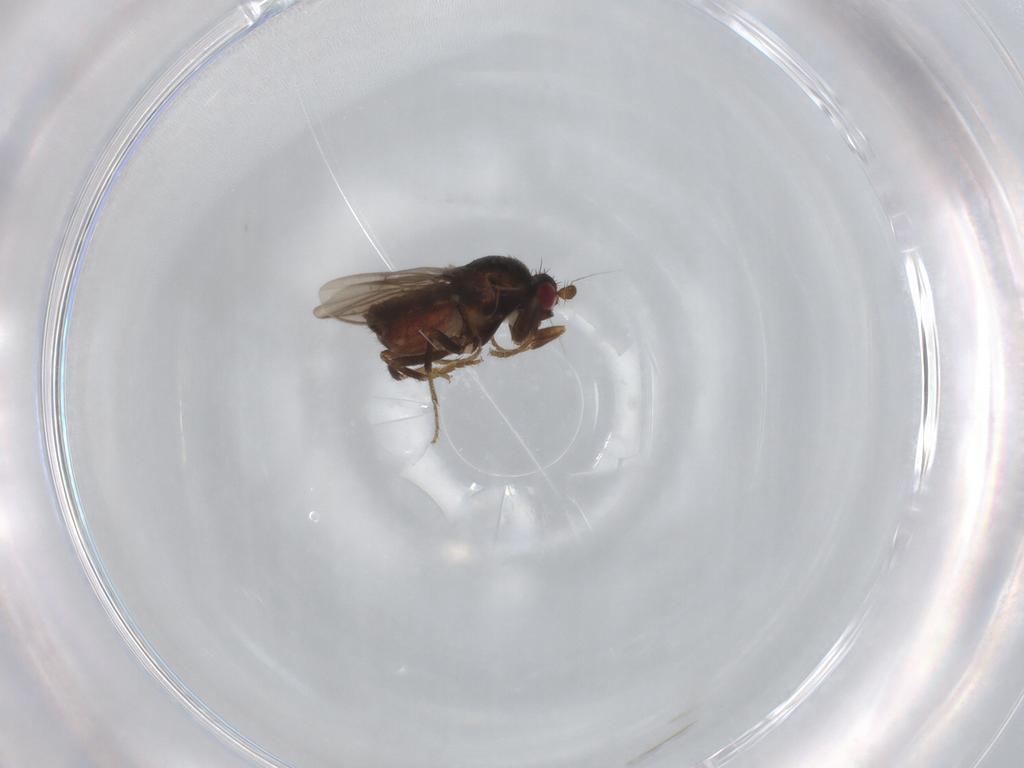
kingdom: Animalia
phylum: Arthropoda
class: Insecta
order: Diptera
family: Sphaeroceridae
